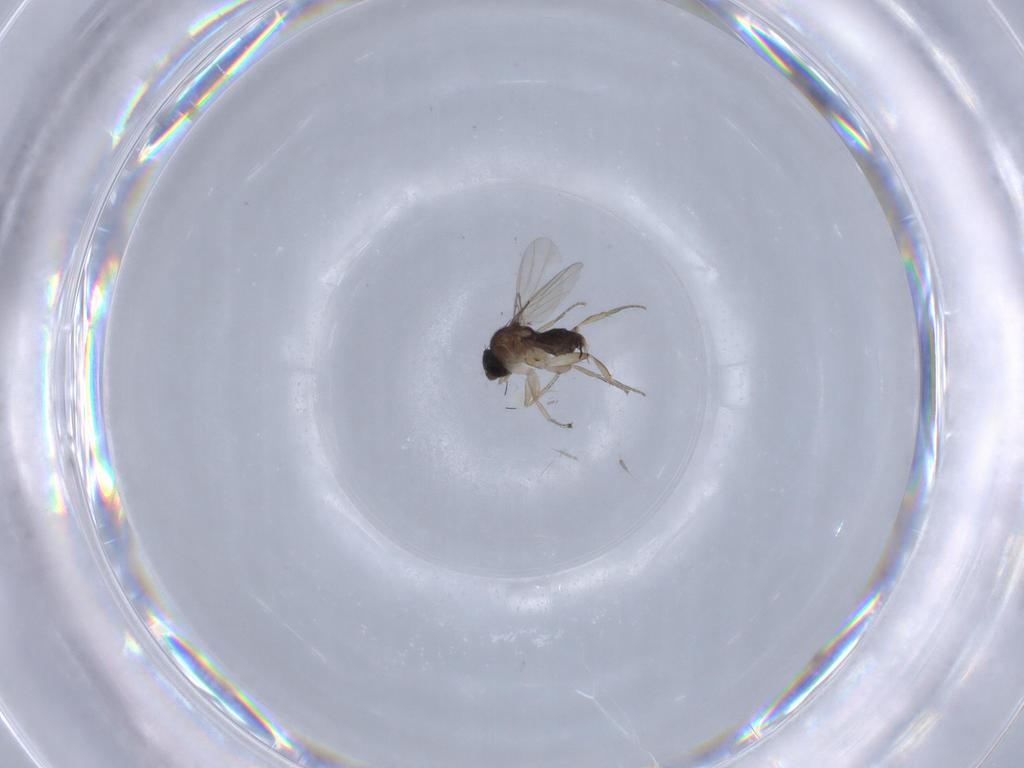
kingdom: Animalia
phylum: Arthropoda
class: Insecta
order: Diptera
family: Phoridae
